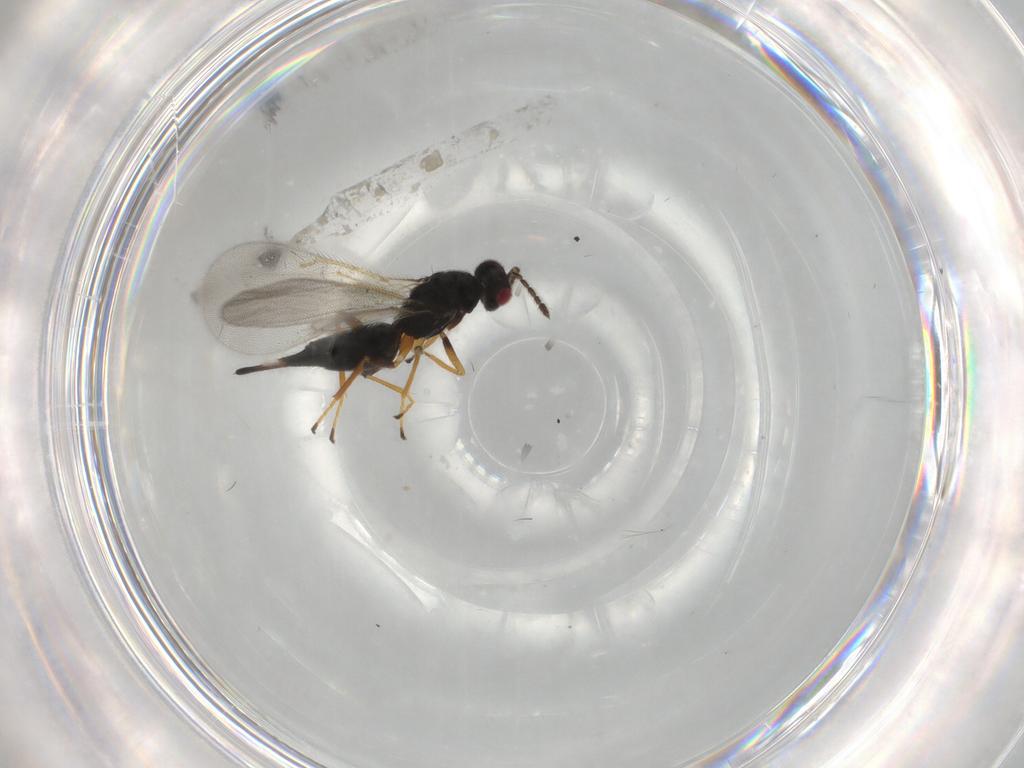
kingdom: Animalia
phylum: Arthropoda
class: Insecta
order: Hymenoptera
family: Eulophidae
